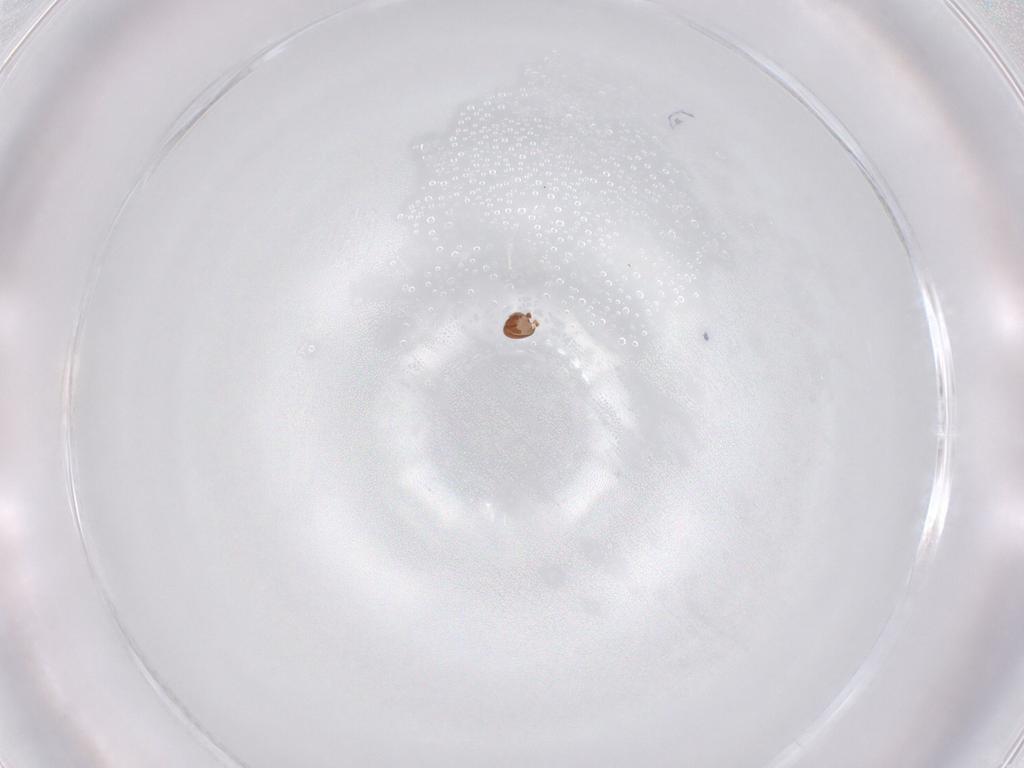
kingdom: Animalia
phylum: Arthropoda
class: Arachnida
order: Sarcoptiformes
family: Ceratozetidae
